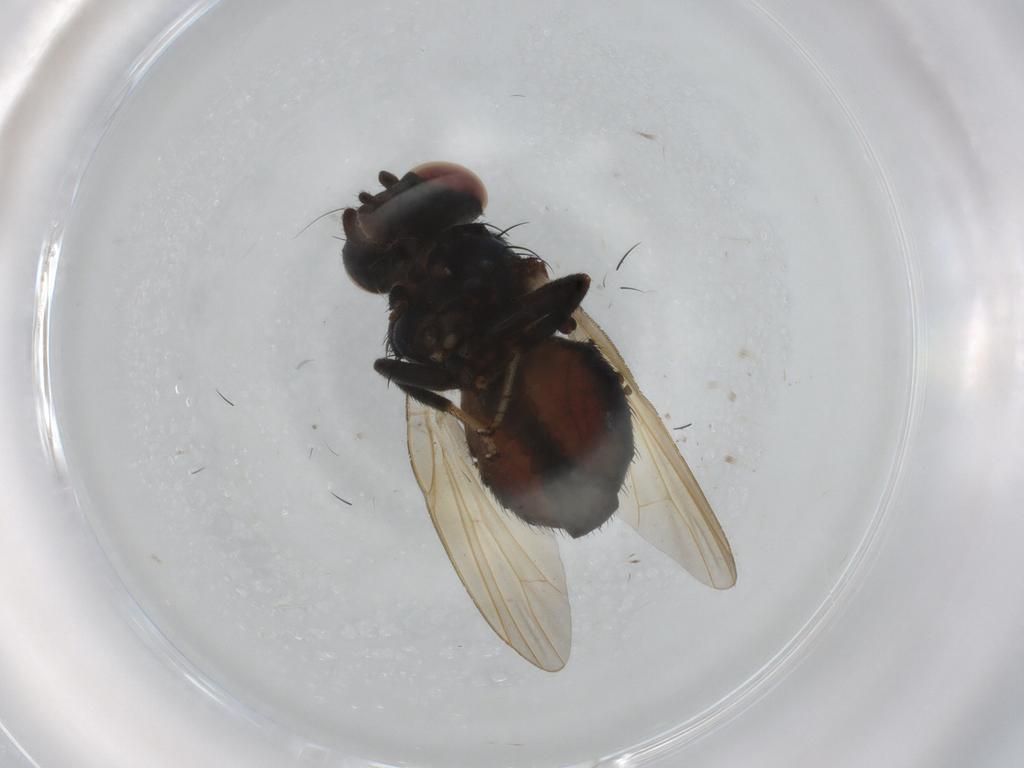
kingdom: Animalia
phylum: Arthropoda
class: Insecta
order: Diptera
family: Lonchaeidae
